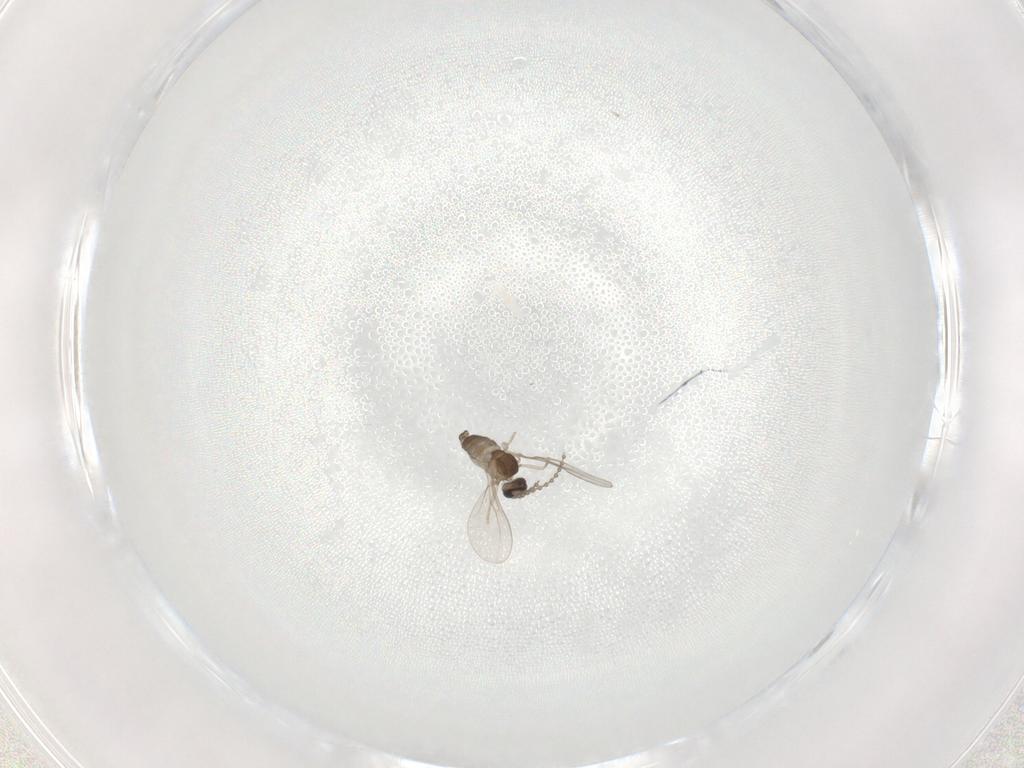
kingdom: Animalia
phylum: Arthropoda
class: Insecta
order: Diptera
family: Cecidomyiidae
